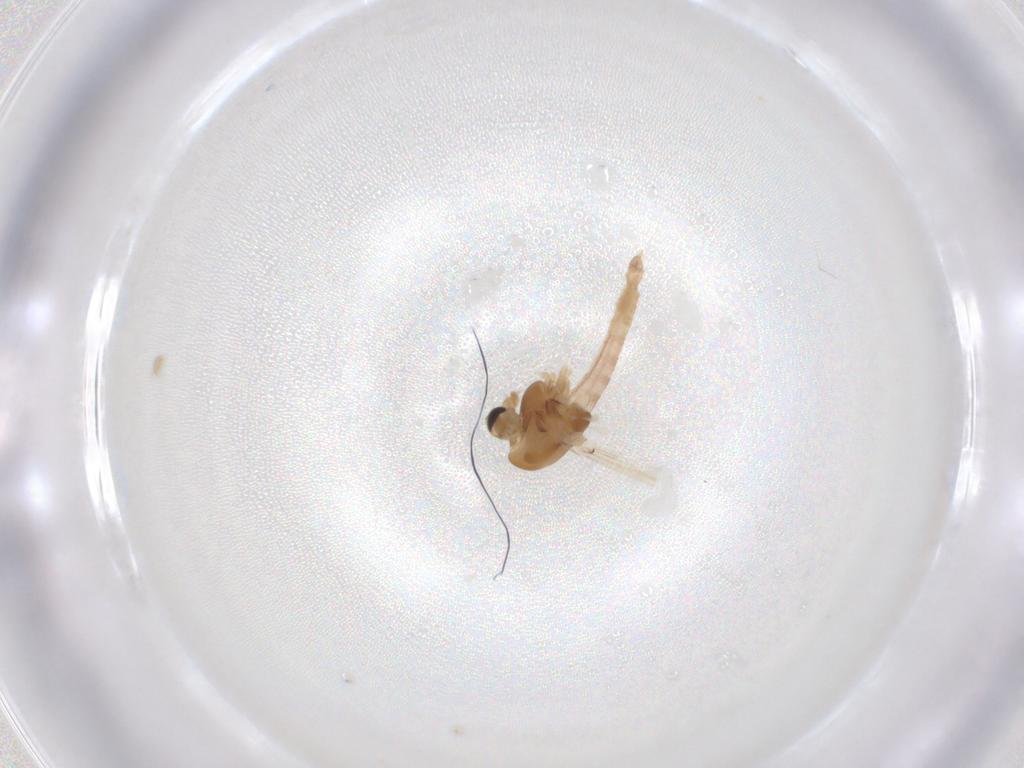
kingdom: Animalia
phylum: Arthropoda
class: Insecta
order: Diptera
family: Chironomidae
